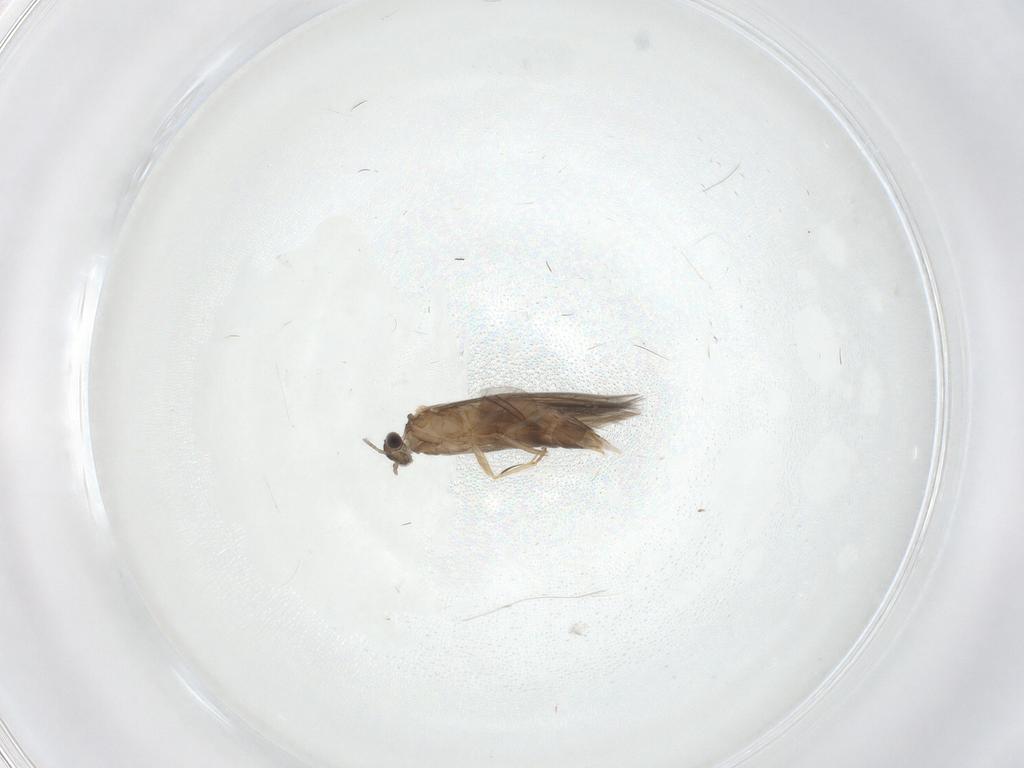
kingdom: Animalia
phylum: Arthropoda
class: Insecta
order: Trichoptera
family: Hydroptilidae
